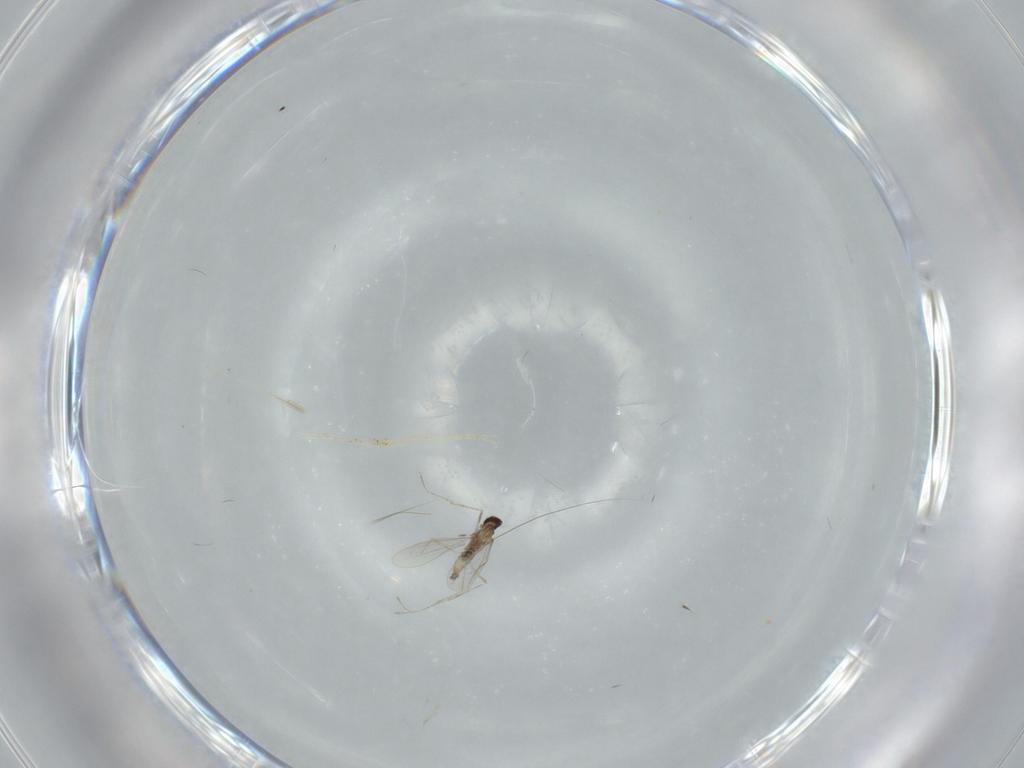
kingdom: Animalia
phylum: Arthropoda
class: Insecta
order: Diptera
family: Cecidomyiidae
